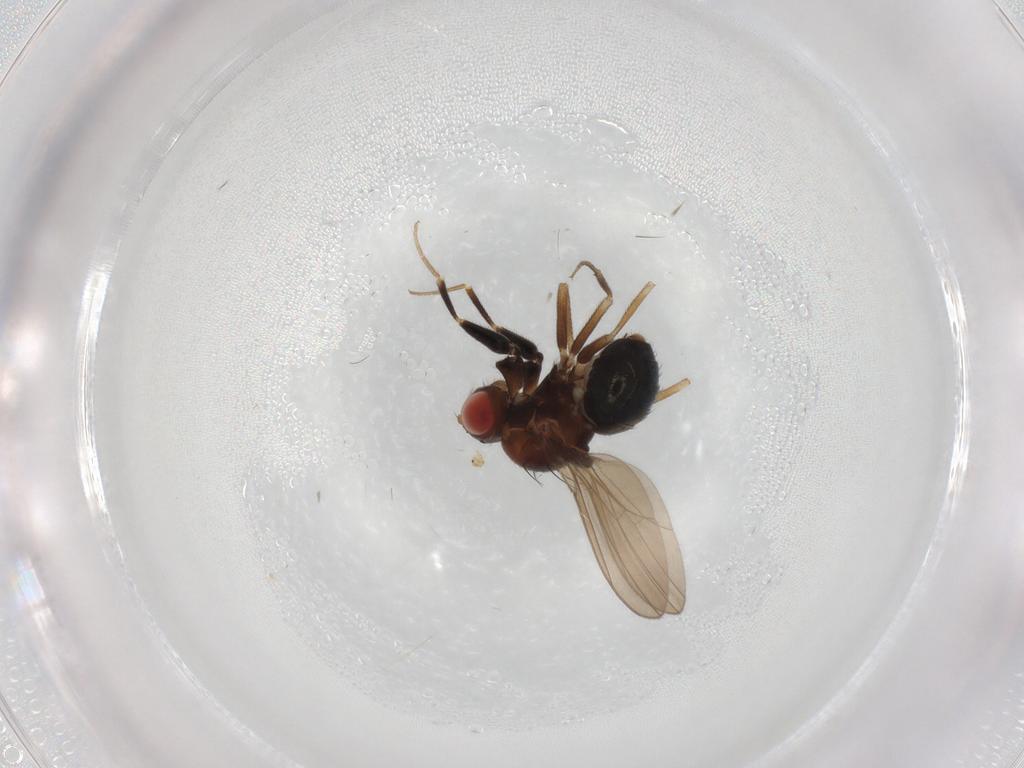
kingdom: Animalia
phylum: Arthropoda
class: Insecta
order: Diptera
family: Drosophilidae
